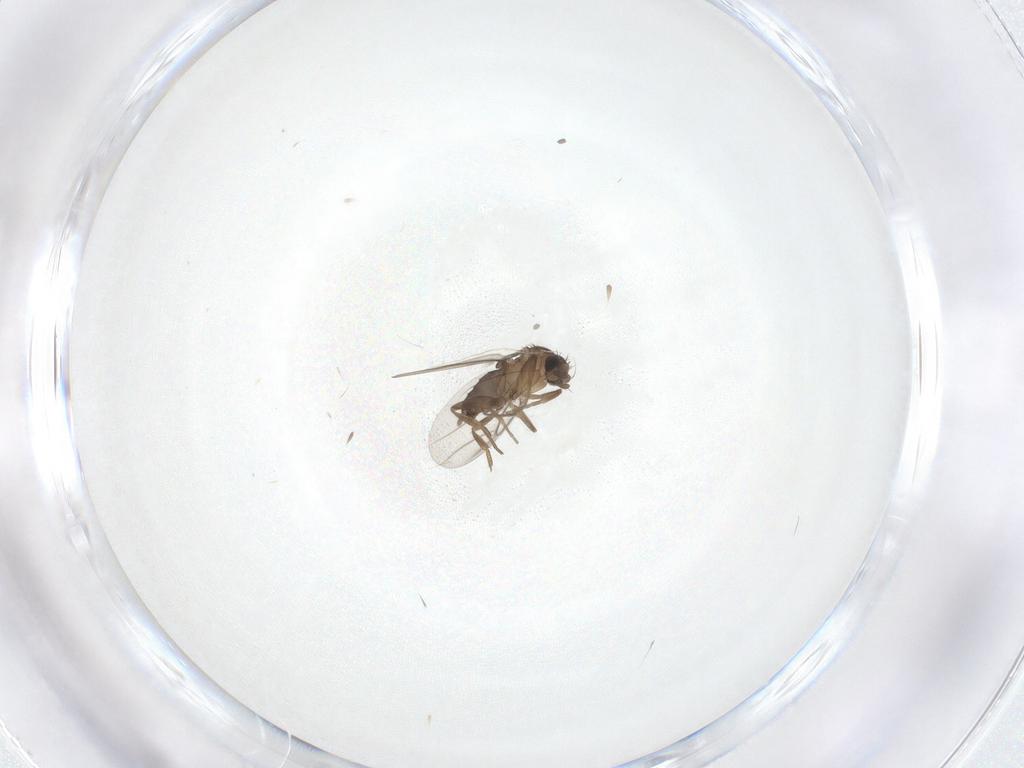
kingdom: Animalia
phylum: Arthropoda
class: Insecta
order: Diptera
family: Phoridae
